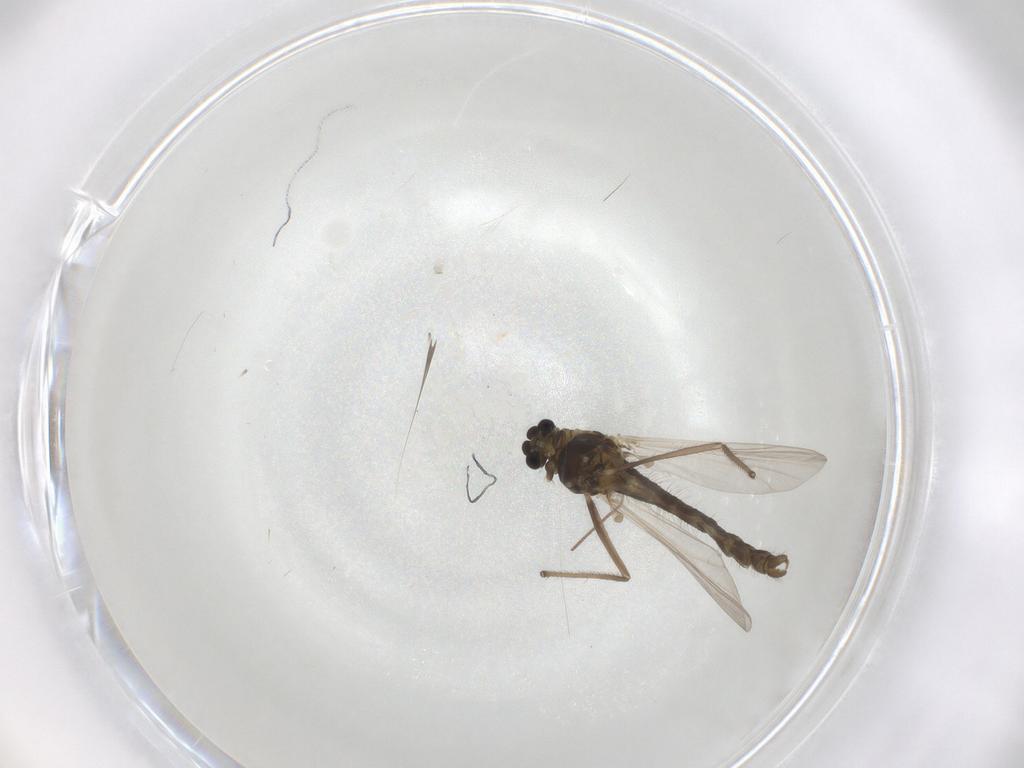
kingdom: Animalia
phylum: Arthropoda
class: Insecta
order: Diptera
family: Chironomidae
